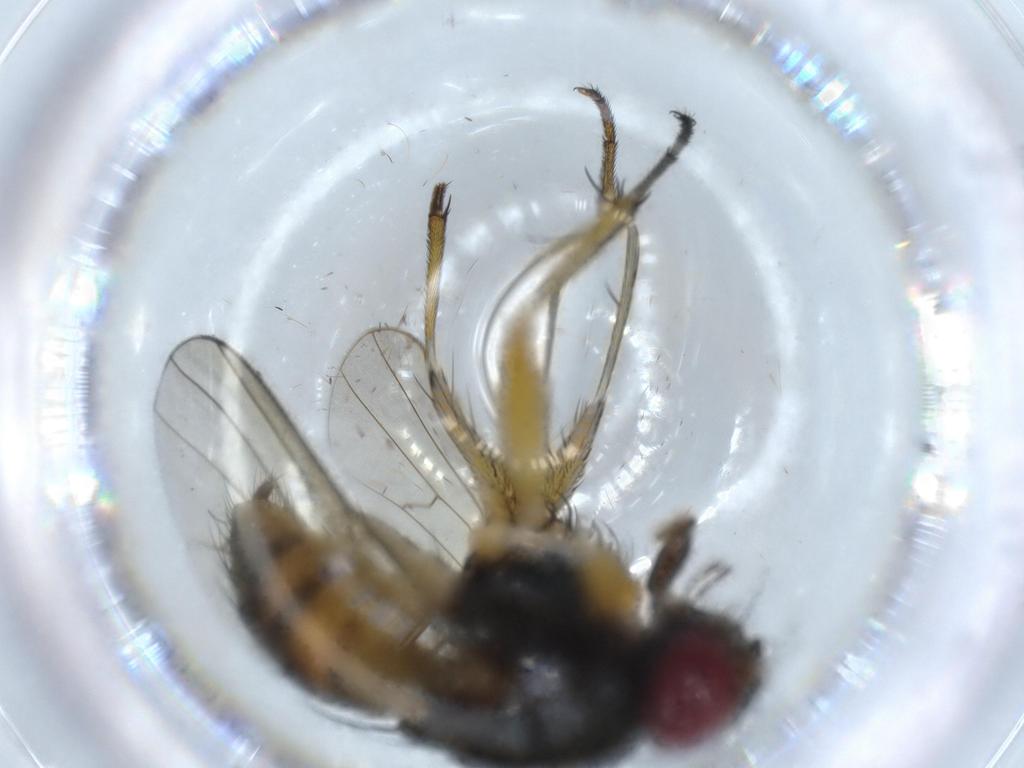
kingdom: Animalia
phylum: Arthropoda
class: Insecta
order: Diptera
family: Muscidae
